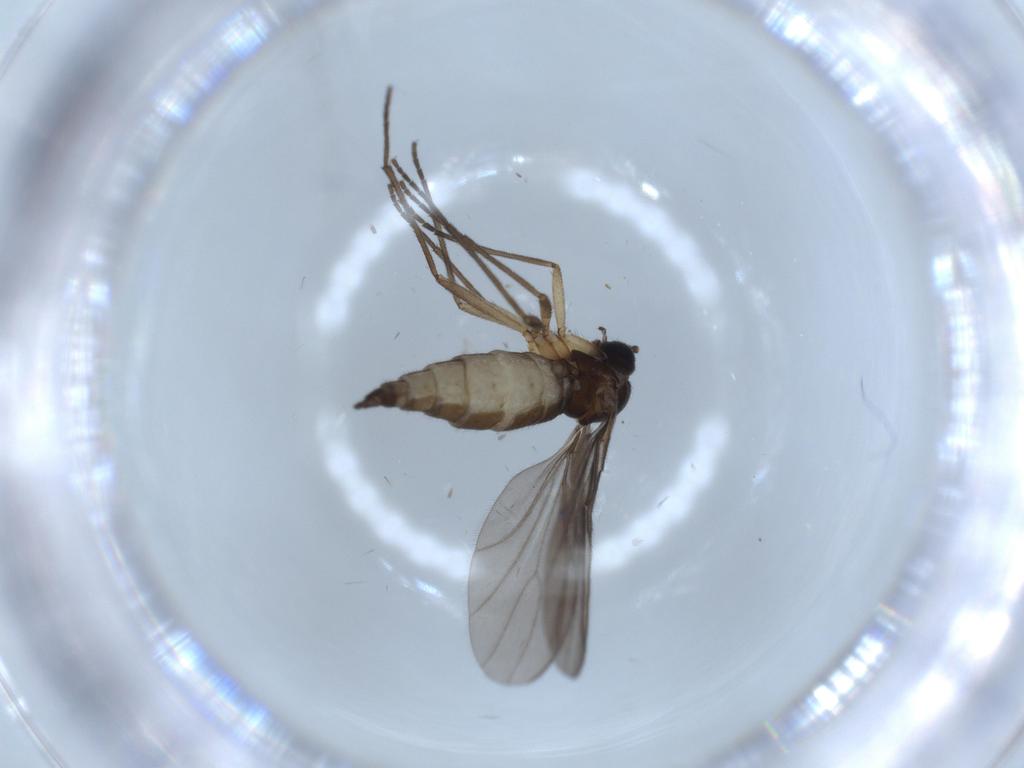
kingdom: Animalia
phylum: Arthropoda
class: Insecta
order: Diptera
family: Sciaridae
